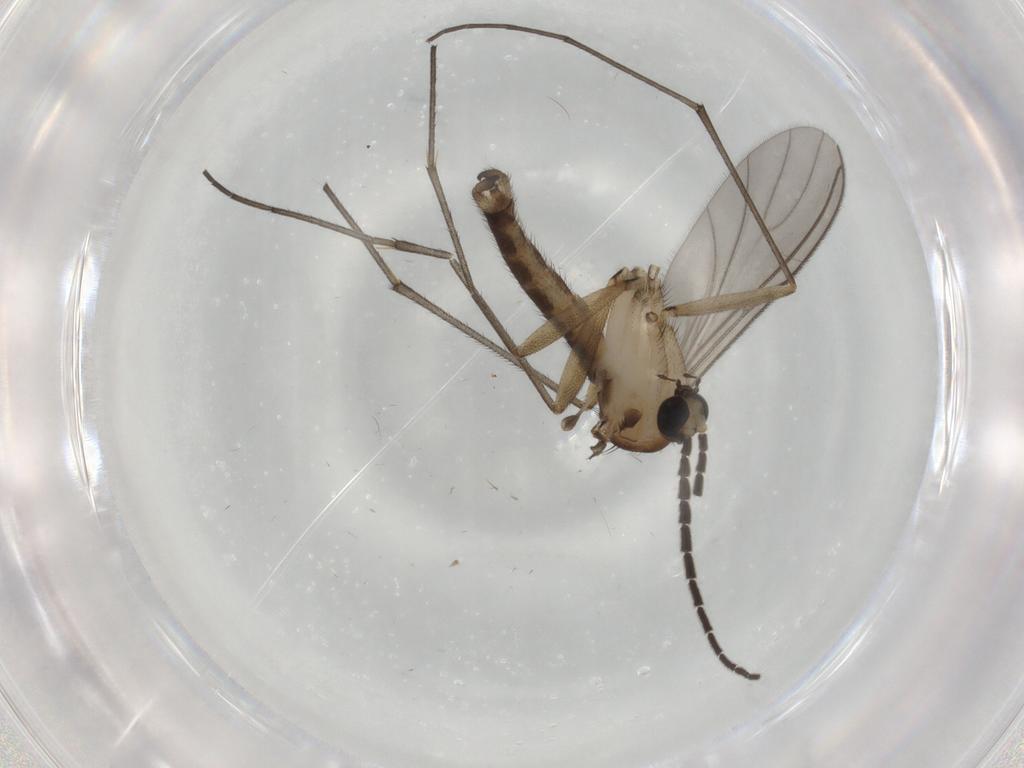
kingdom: Animalia
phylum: Arthropoda
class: Insecta
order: Diptera
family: Sciaridae
